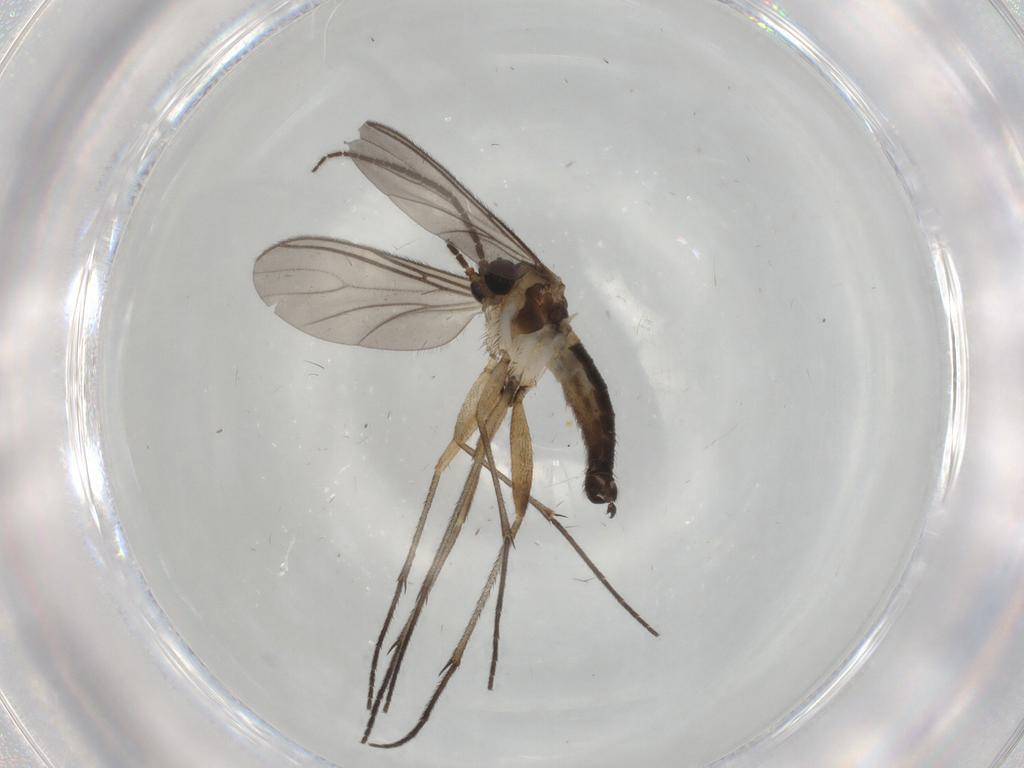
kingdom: Animalia
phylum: Arthropoda
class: Insecta
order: Diptera
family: Sciaridae
